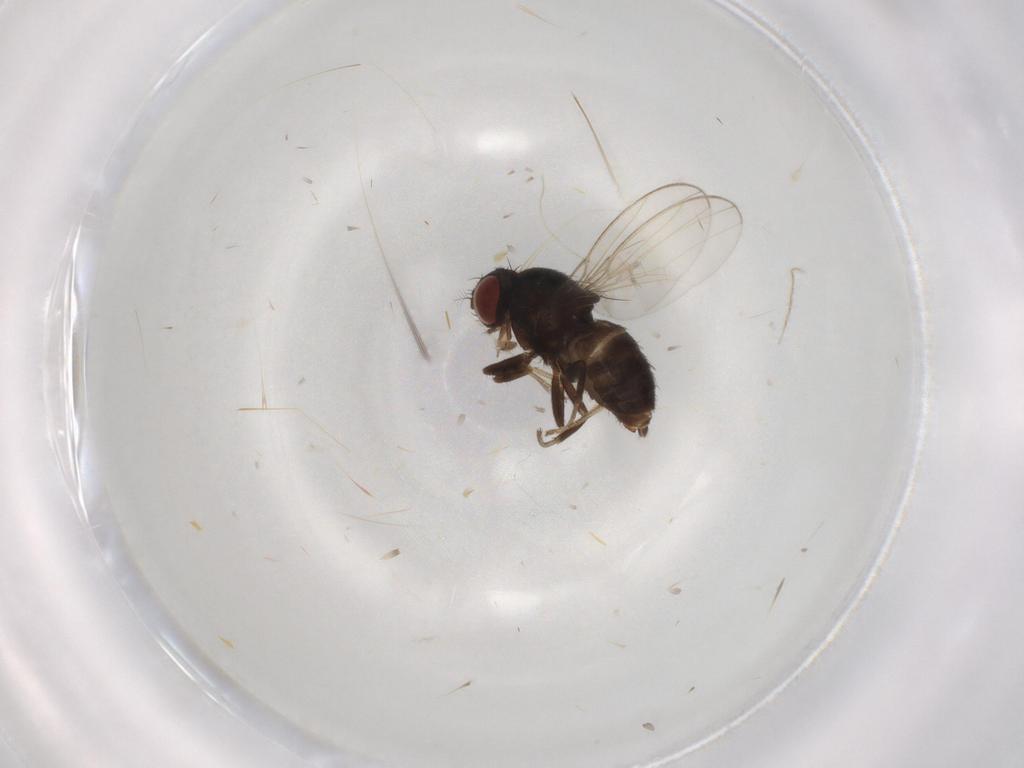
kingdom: Animalia
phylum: Arthropoda
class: Insecta
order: Diptera
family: Drosophilidae
